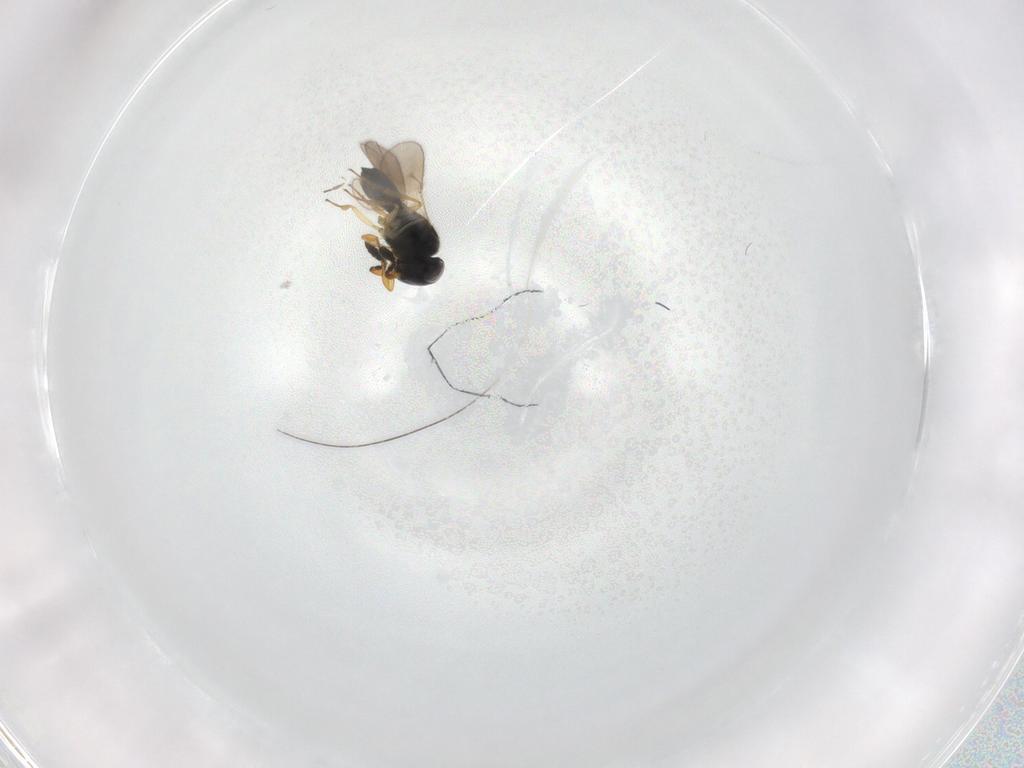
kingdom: Animalia
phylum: Arthropoda
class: Insecta
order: Hymenoptera
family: Scelionidae
